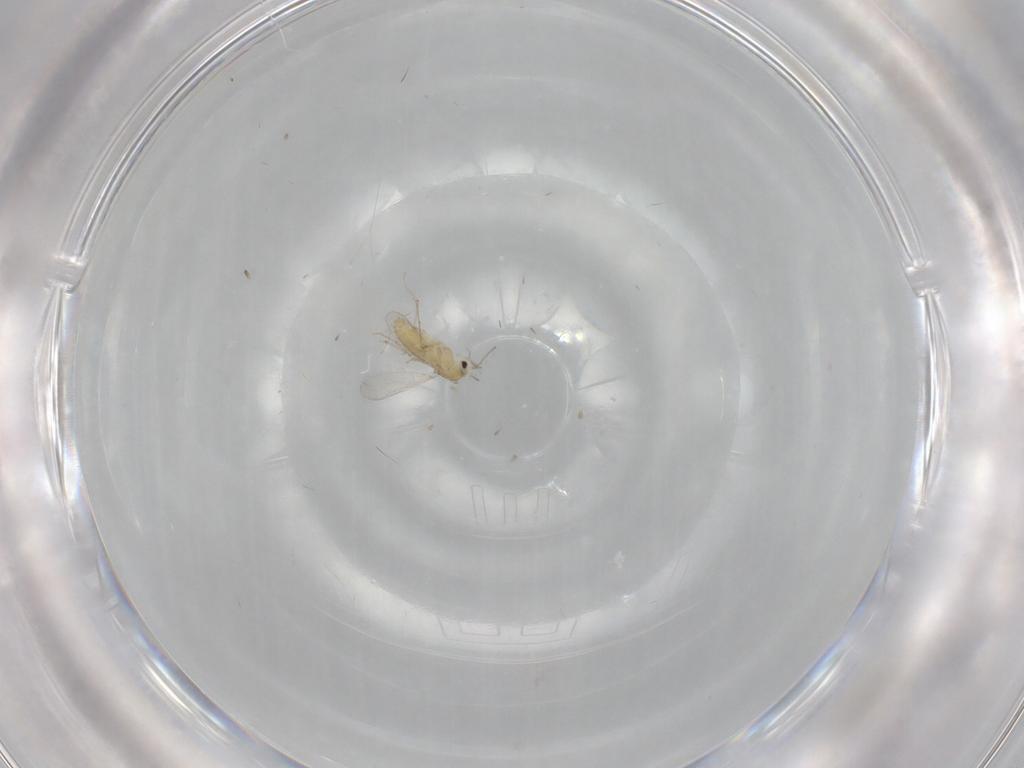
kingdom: Animalia
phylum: Arthropoda
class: Insecta
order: Diptera
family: Chironomidae
